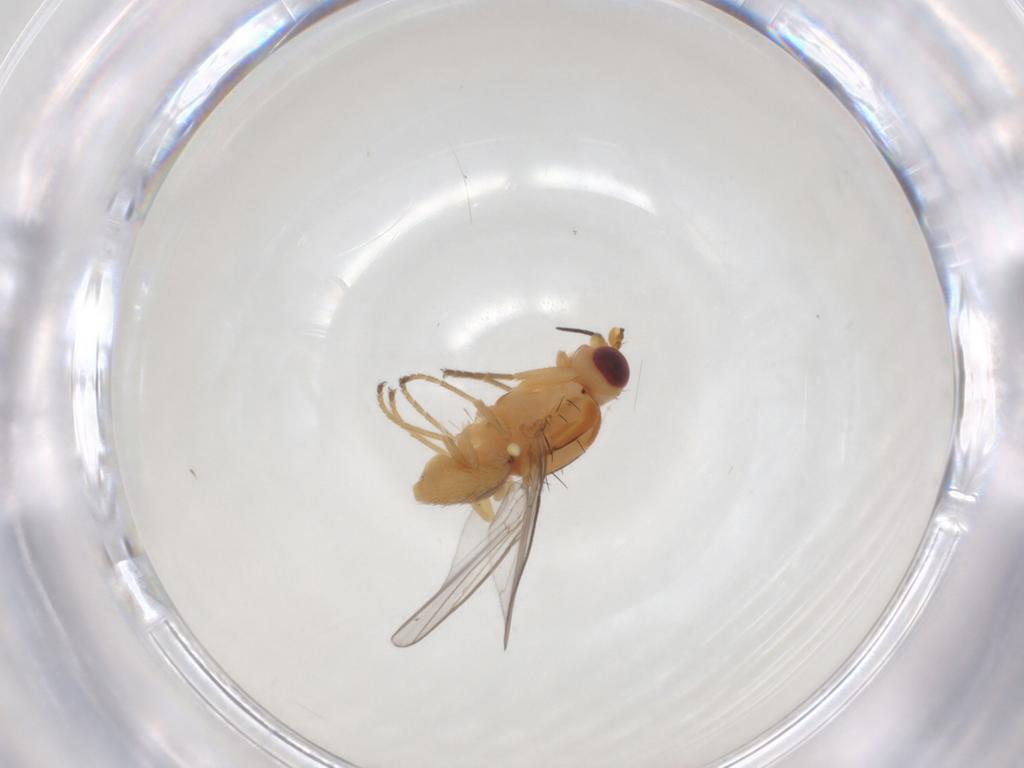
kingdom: Animalia
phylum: Arthropoda
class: Insecta
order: Diptera
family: Chloropidae
